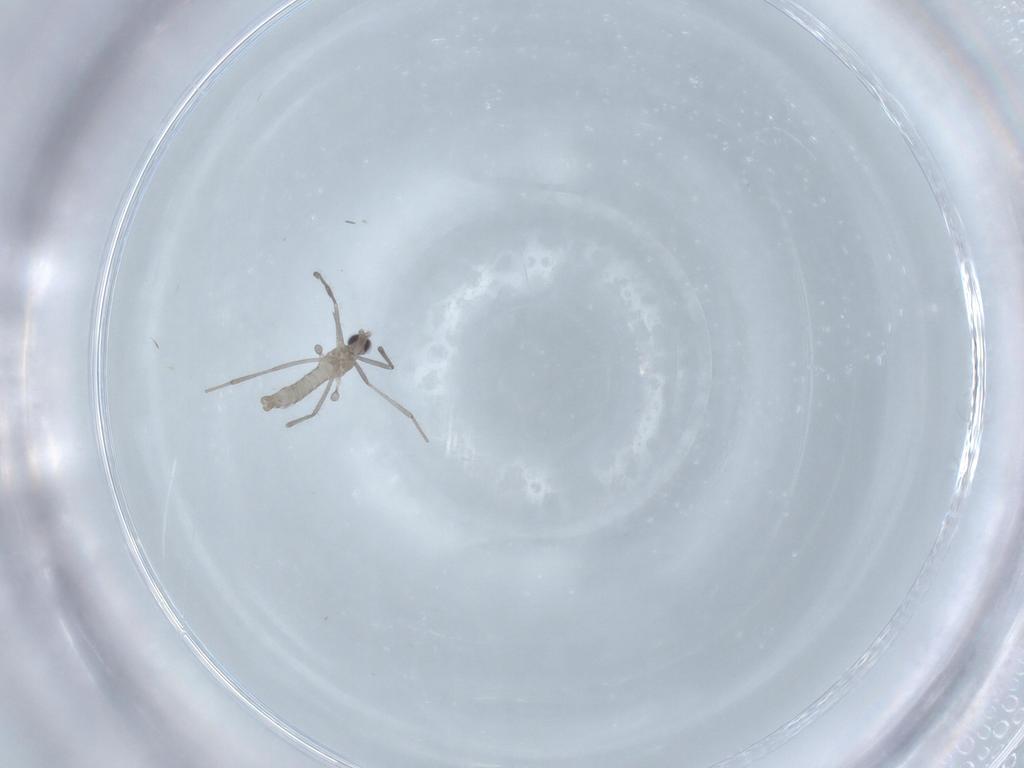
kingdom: Animalia
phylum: Arthropoda
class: Insecta
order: Diptera
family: Cecidomyiidae
